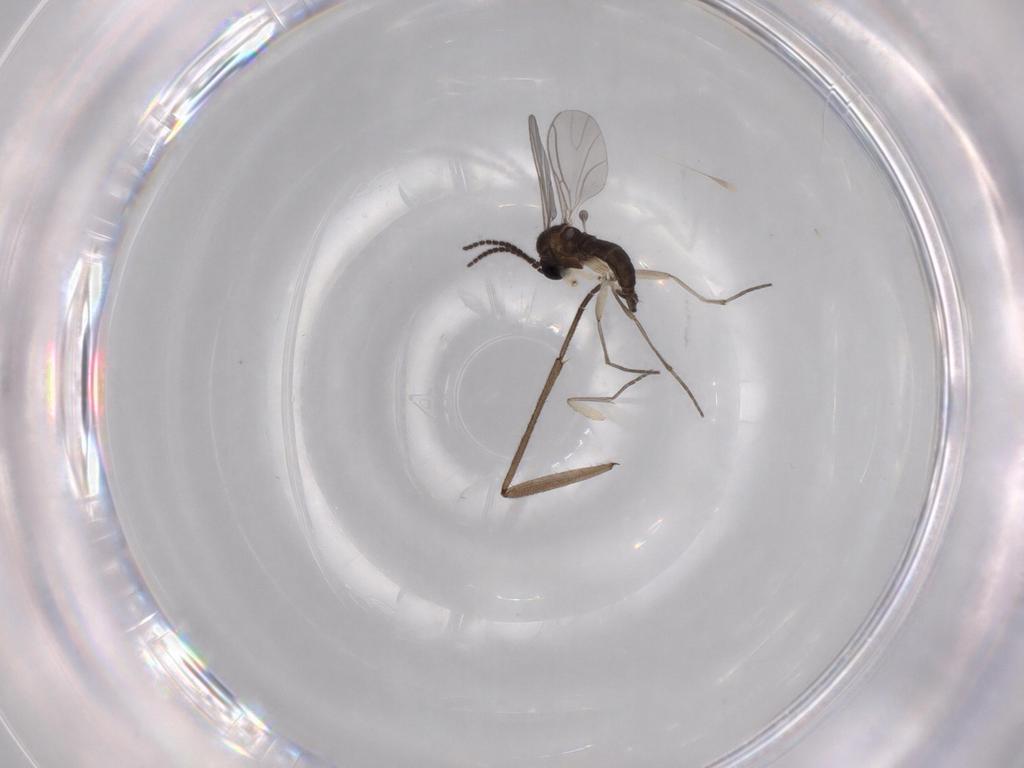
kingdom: Animalia
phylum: Arthropoda
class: Insecta
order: Diptera
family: Sciaridae
